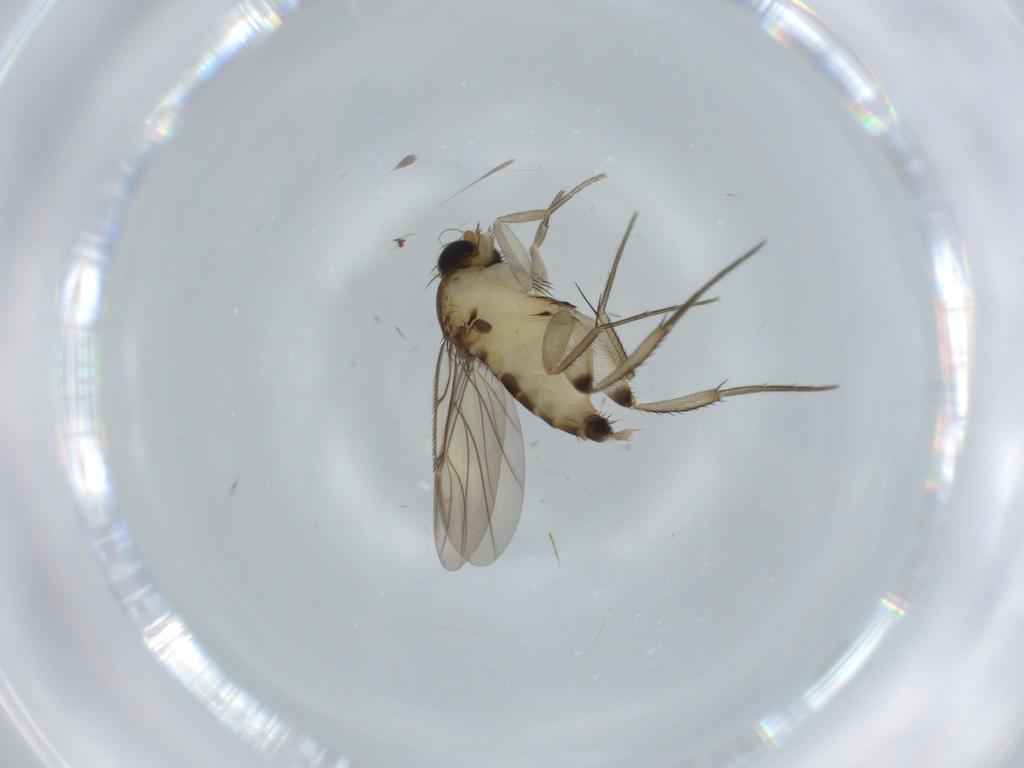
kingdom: Animalia
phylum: Arthropoda
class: Insecta
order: Diptera
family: Phoridae
